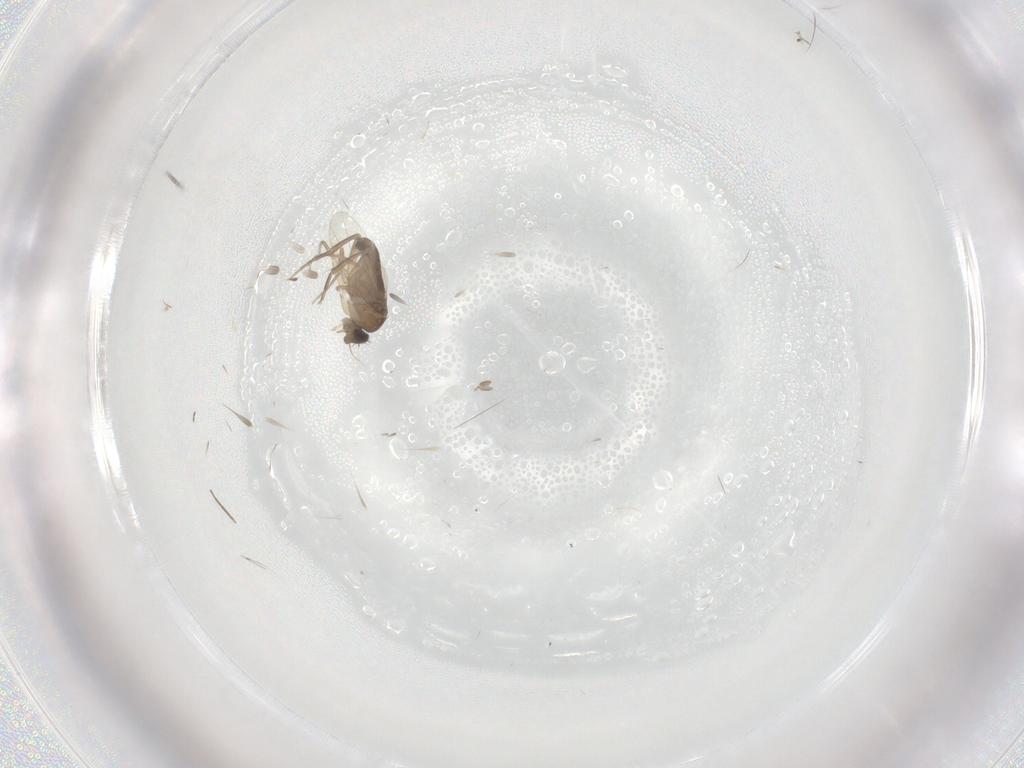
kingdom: Animalia
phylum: Arthropoda
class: Insecta
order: Diptera
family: Phoridae
